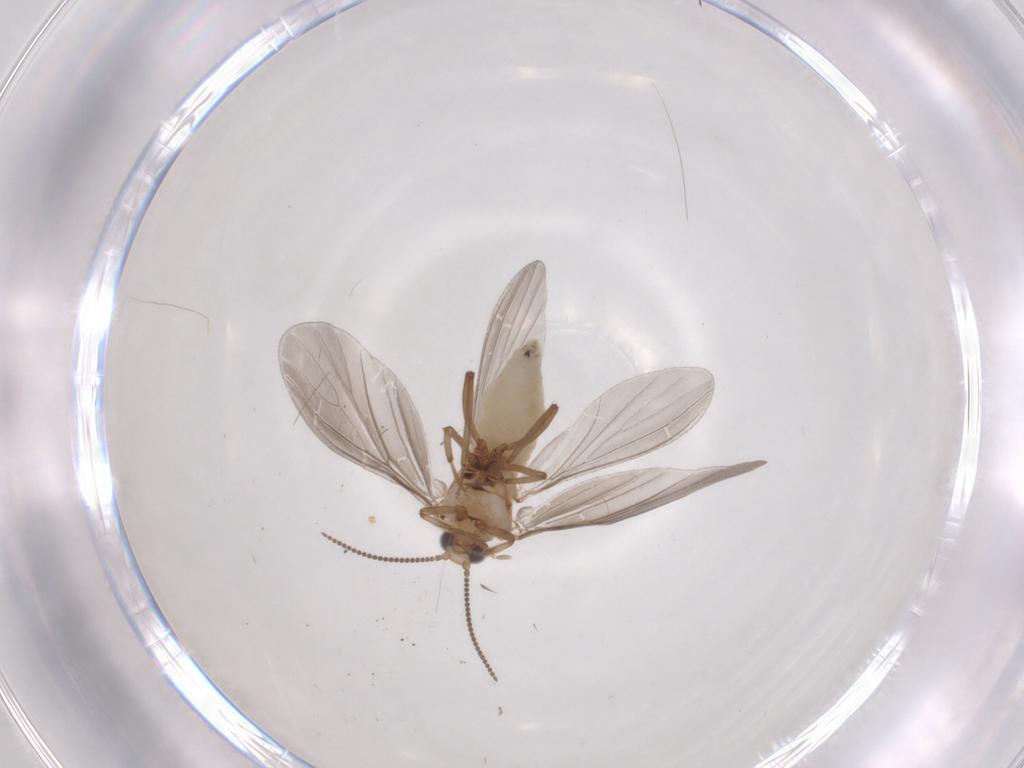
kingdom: Animalia
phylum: Arthropoda
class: Insecta
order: Neuroptera
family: Coniopterygidae
